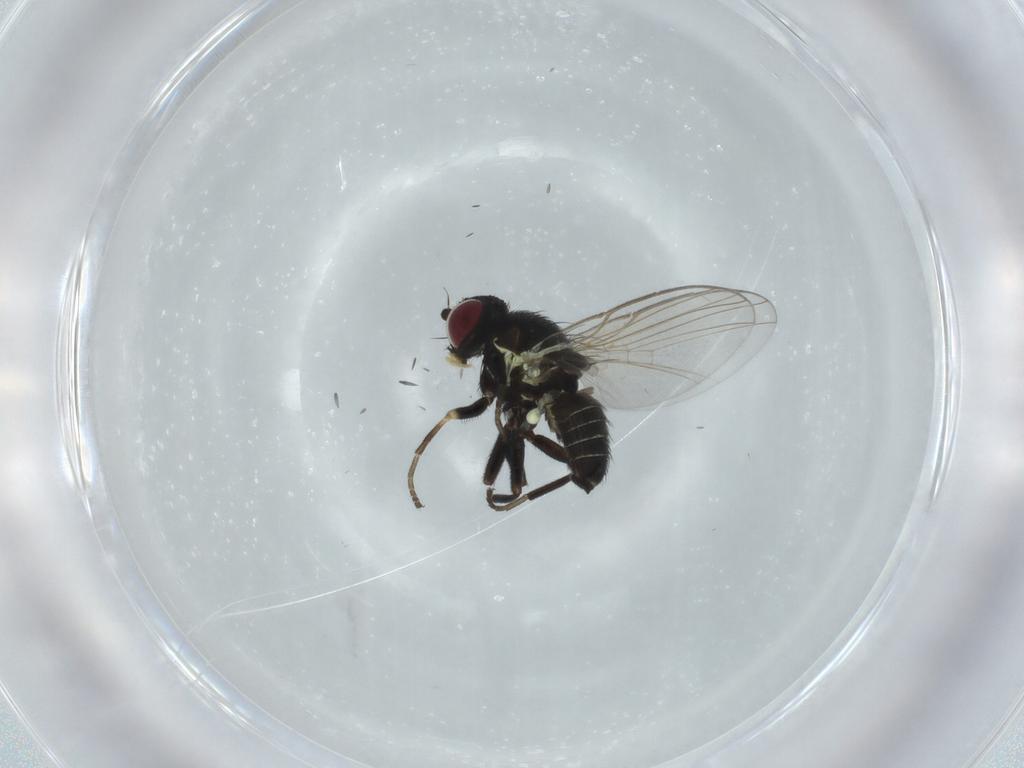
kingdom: Animalia
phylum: Arthropoda
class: Insecta
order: Diptera
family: Agromyzidae
